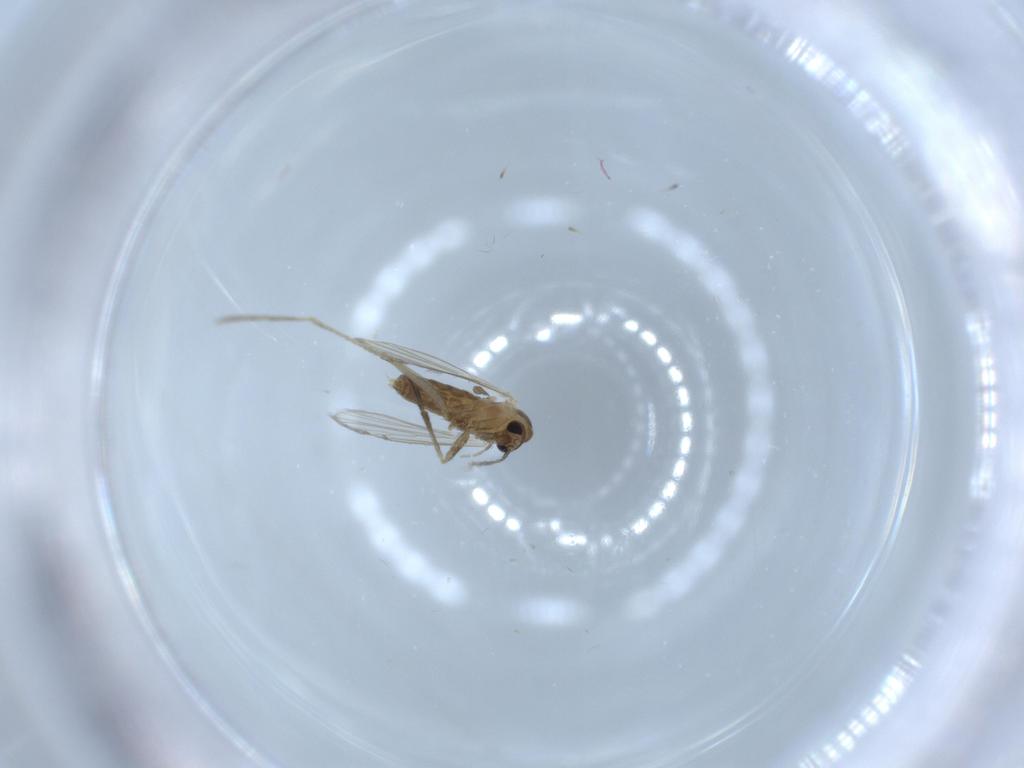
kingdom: Animalia
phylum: Arthropoda
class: Insecta
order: Diptera
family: Psychodidae
